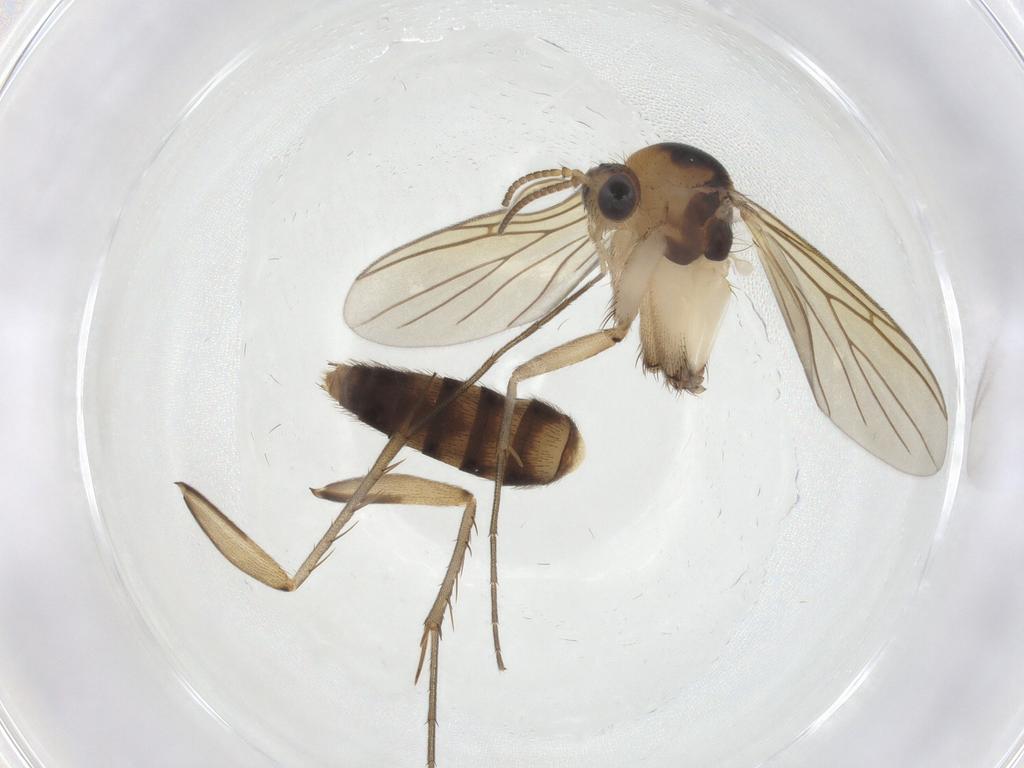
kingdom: Animalia
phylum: Arthropoda
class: Insecta
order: Diptera
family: Mycetophilidae
